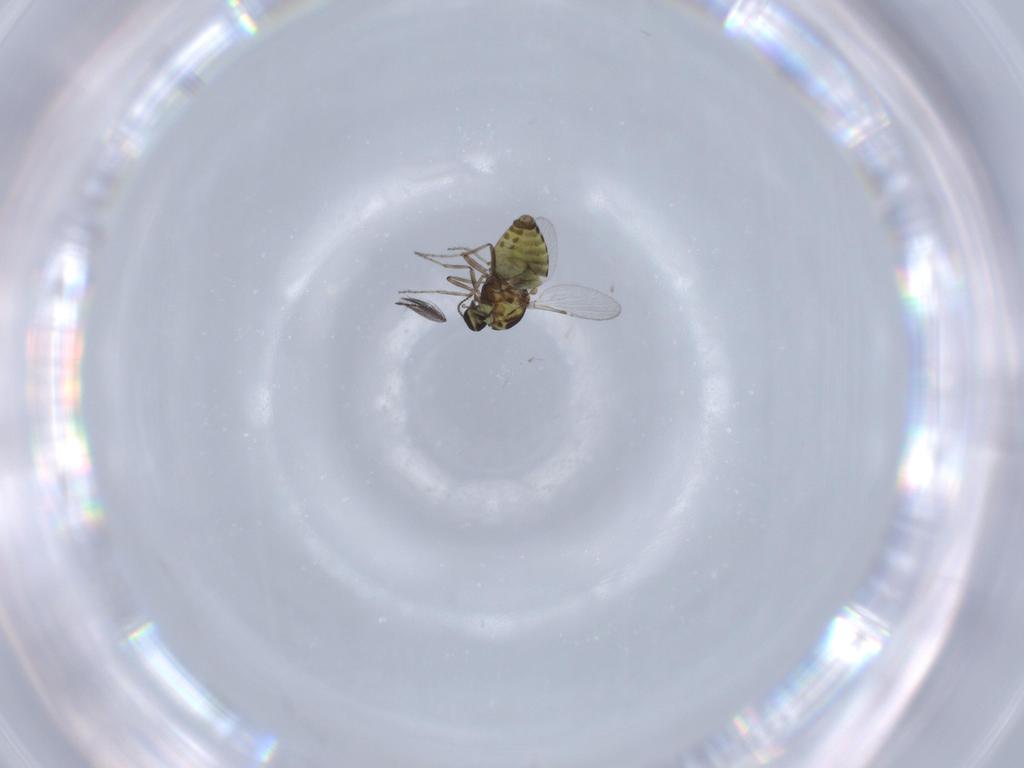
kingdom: Animalia
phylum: Arthropoda
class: Insecta
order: Diptera
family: Ceratopogonidae
